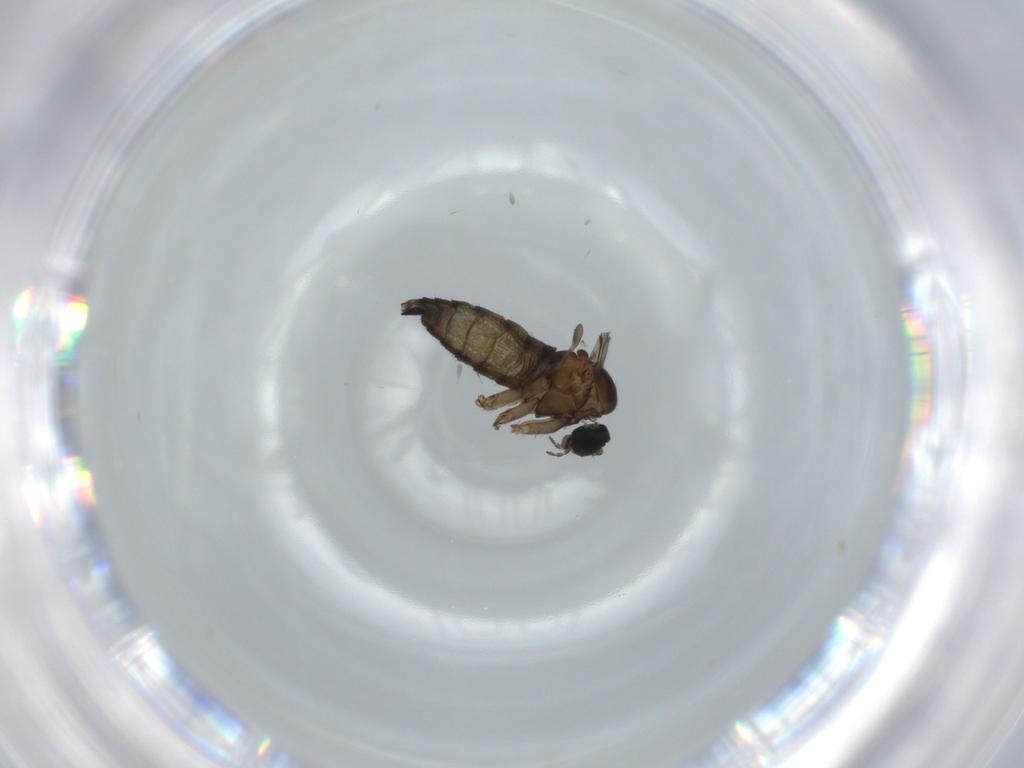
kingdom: Animalia
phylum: Arthropoda
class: Insecta
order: Diptera
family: Sciaridae
